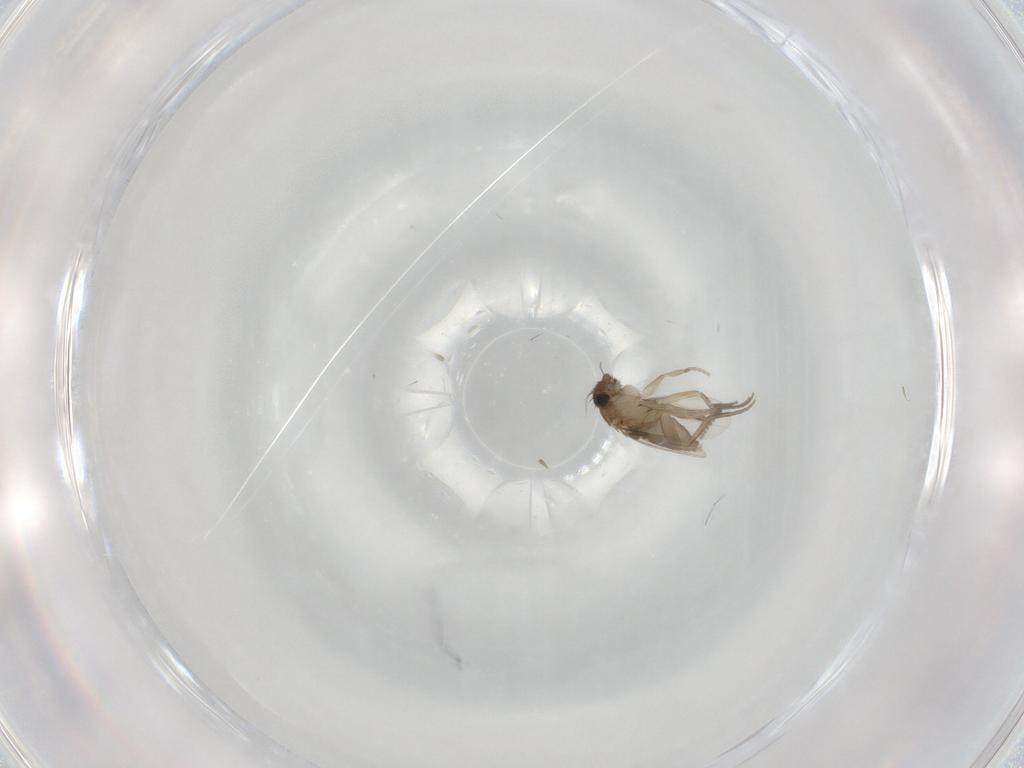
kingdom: Animalia
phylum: Arthropoda
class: Insecta
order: Diptera
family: Phoridae
